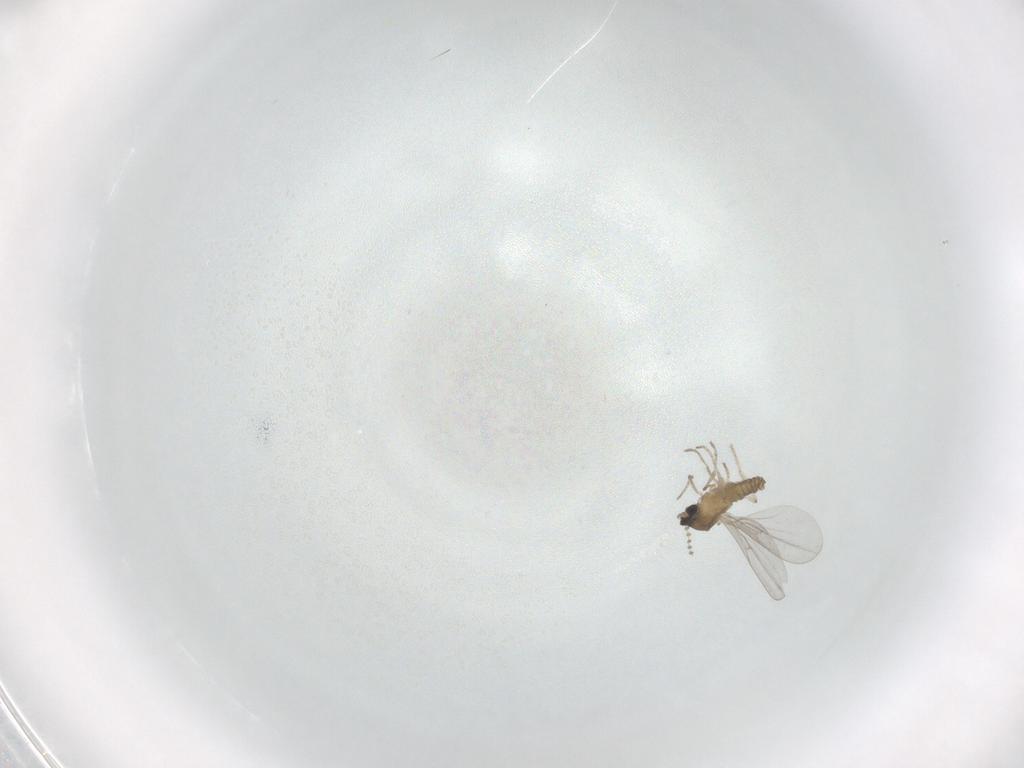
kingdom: Animalia
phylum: Arthropoda
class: Insecta
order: Diptera
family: Cecidomyiidae
